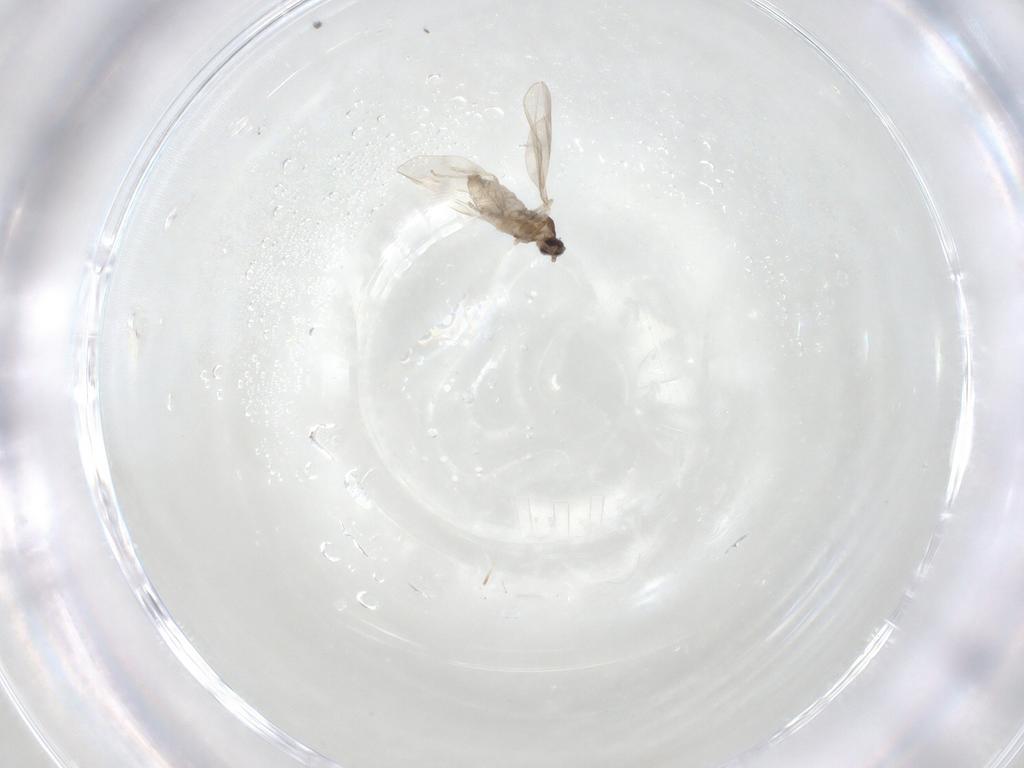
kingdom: Animalia
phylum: Arthropoda
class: Insecta
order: Diptera
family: Cecidomyiidae
